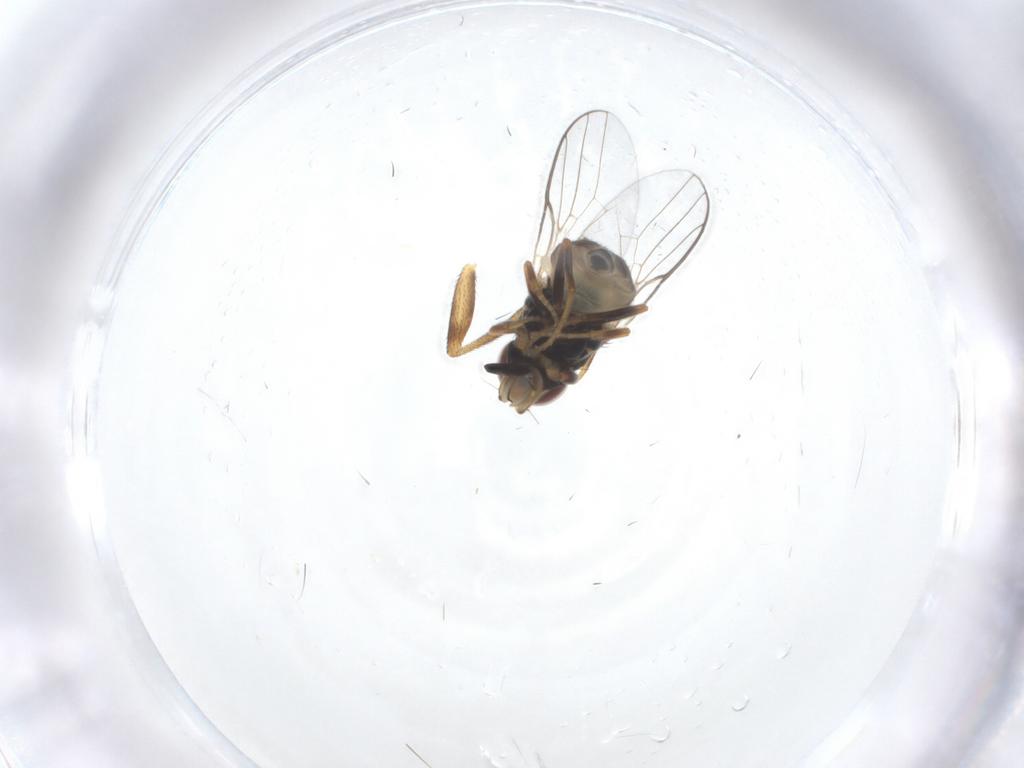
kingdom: Animalia
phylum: Arthropoda
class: Insecta
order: Diptera
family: Chloropidae
